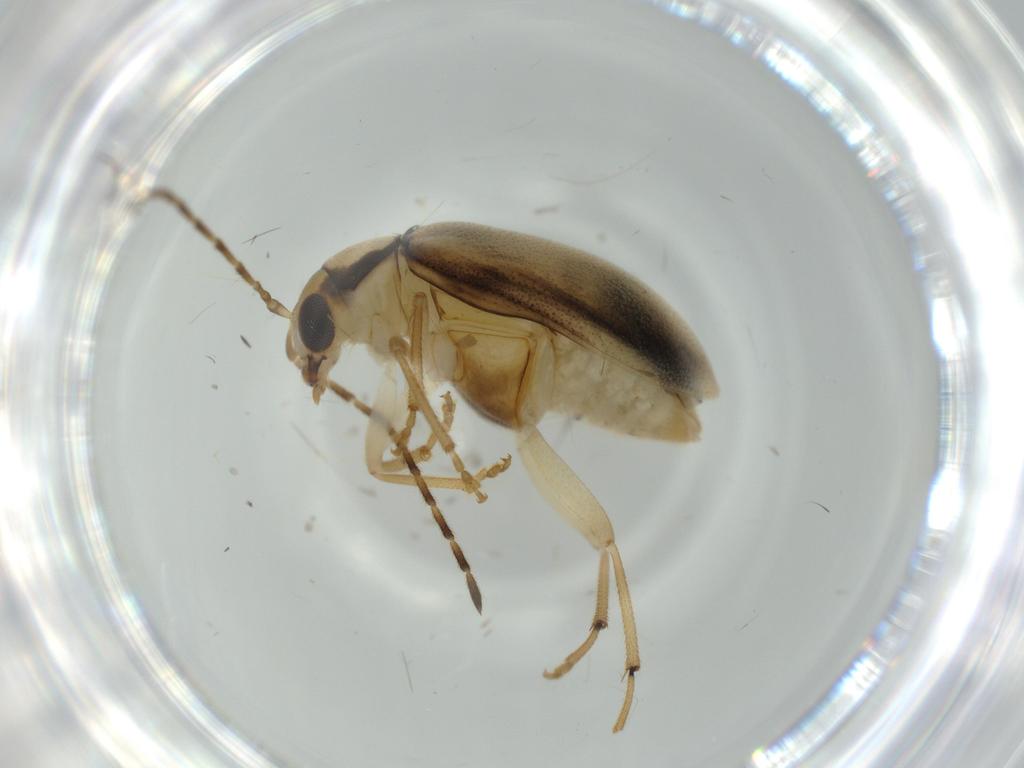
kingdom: Animalia
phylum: Arthropoda
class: Insecta
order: Coleoptera
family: Chrysomelidae
